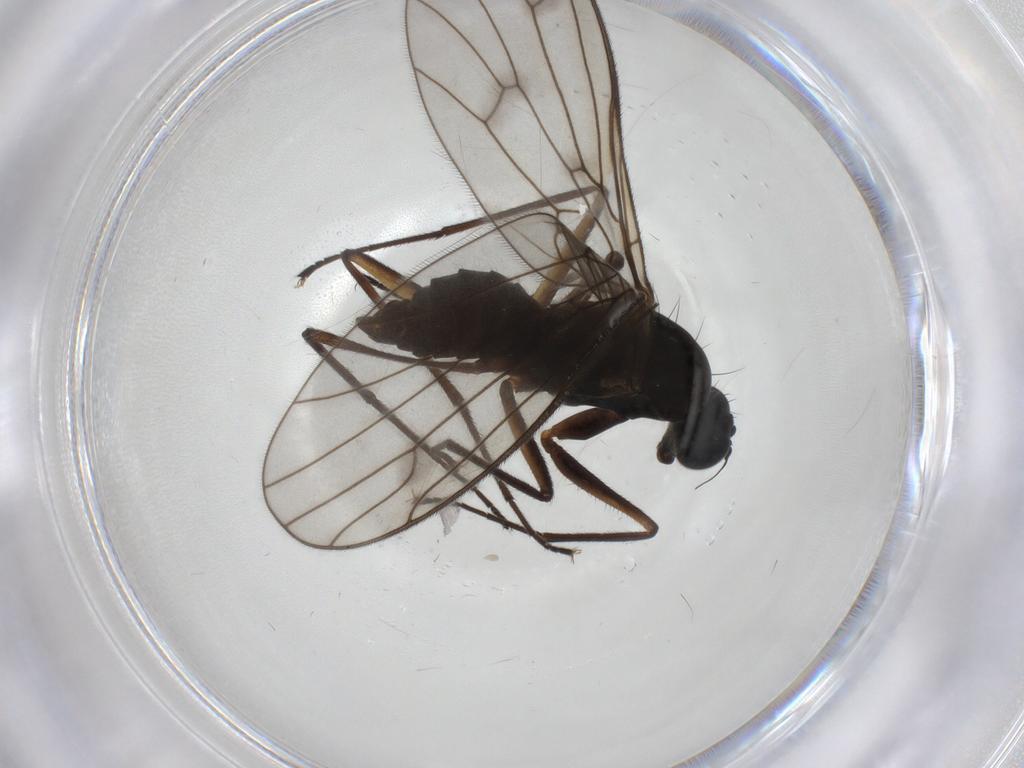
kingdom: Animalia
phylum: Arthropoda
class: Insecta
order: Diptera
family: Empididae
